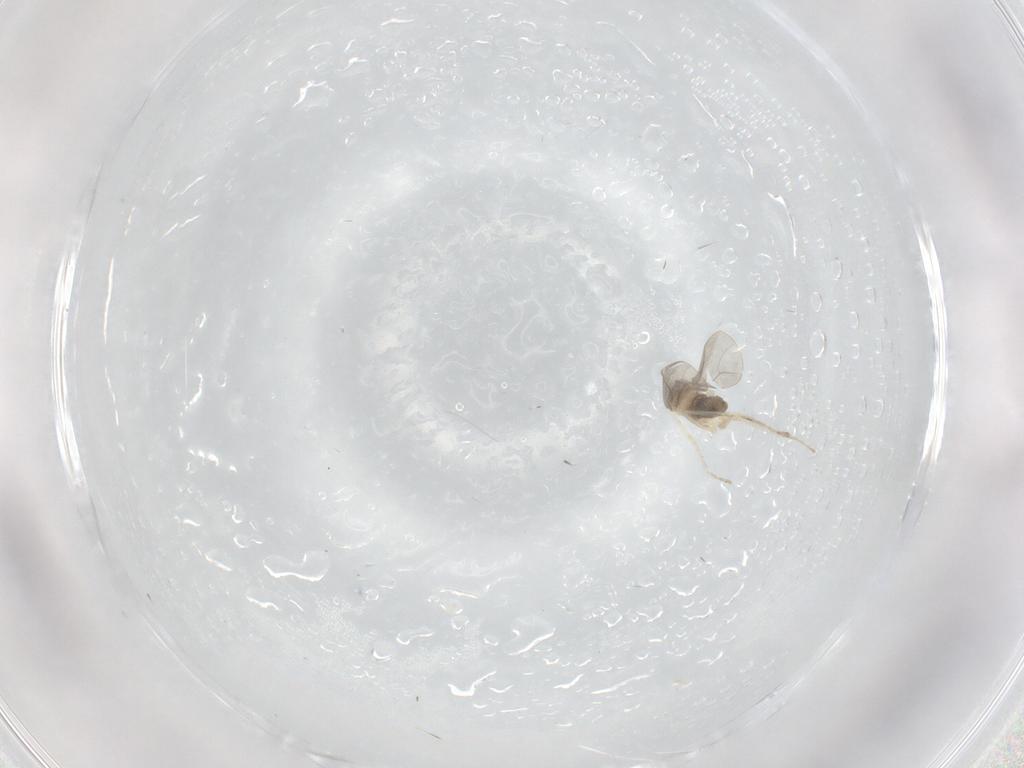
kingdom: Animalia
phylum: Arthropoda
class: Insecta
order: Diptera
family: Cecidomyiidae
